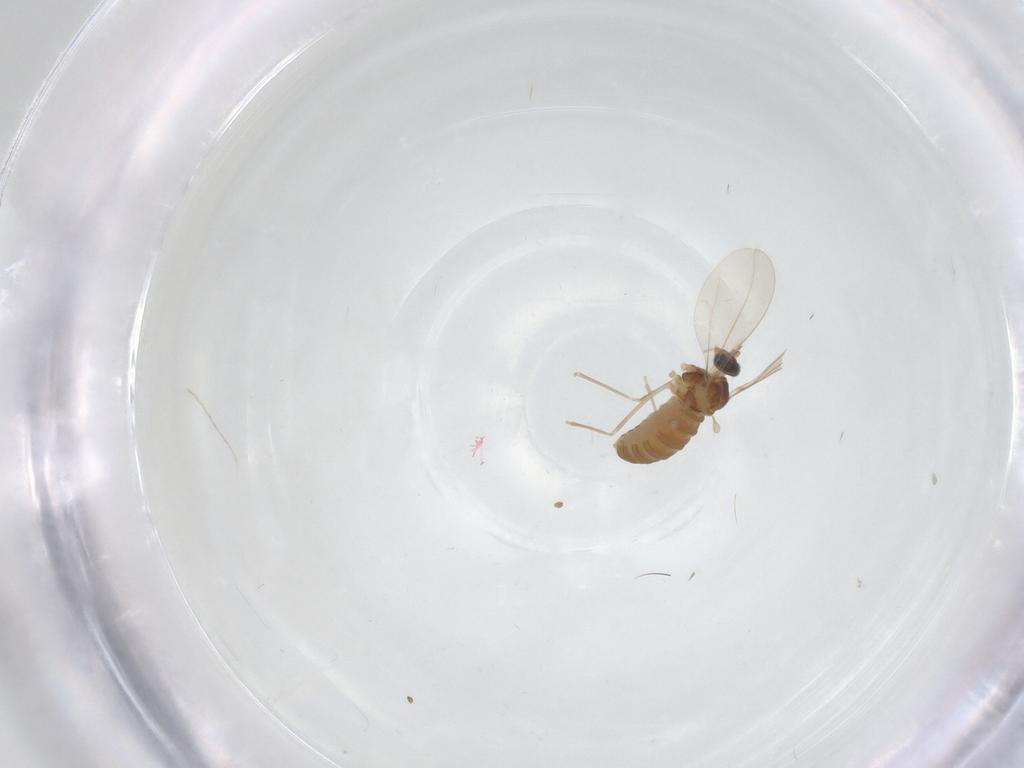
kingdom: Animalia
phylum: Arthropoda
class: Insecta
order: Diptera
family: Cecidomyiidae
